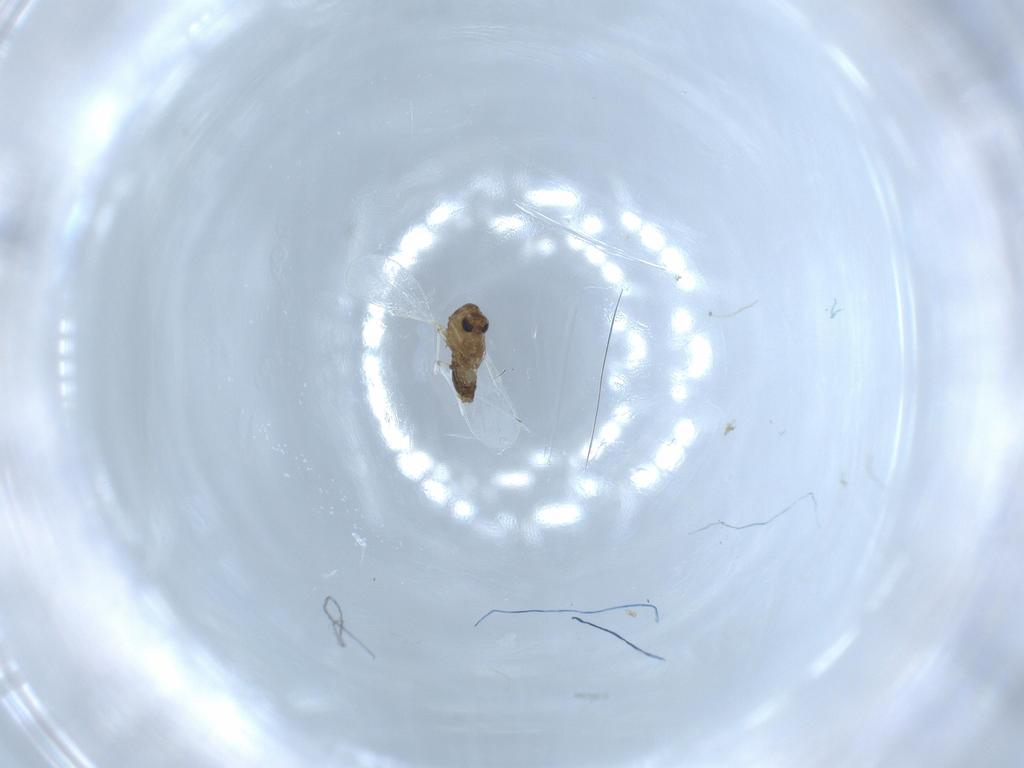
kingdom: Animalia
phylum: Arthropoda
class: Insecta
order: Diptera
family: Chironomidae
